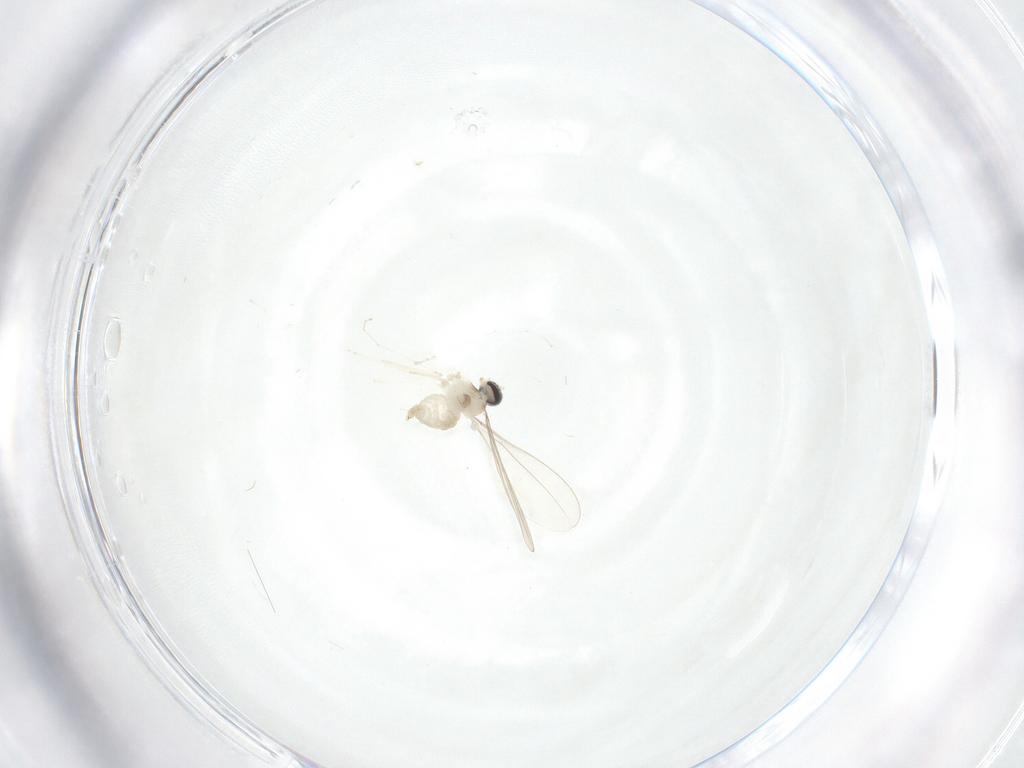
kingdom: Animalia
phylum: Arthropoda
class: Insecta
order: Diptera
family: Cecidomyiidae
